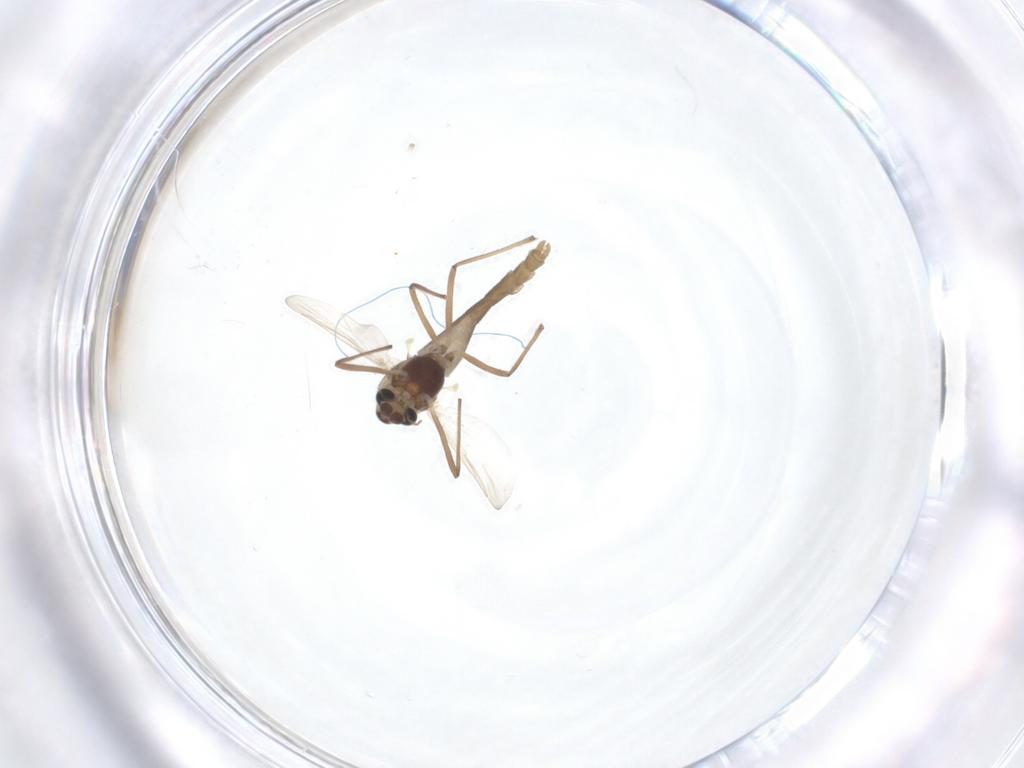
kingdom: Animalia
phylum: Arthropoda
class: Insecta
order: Diptera
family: Chironomidae
